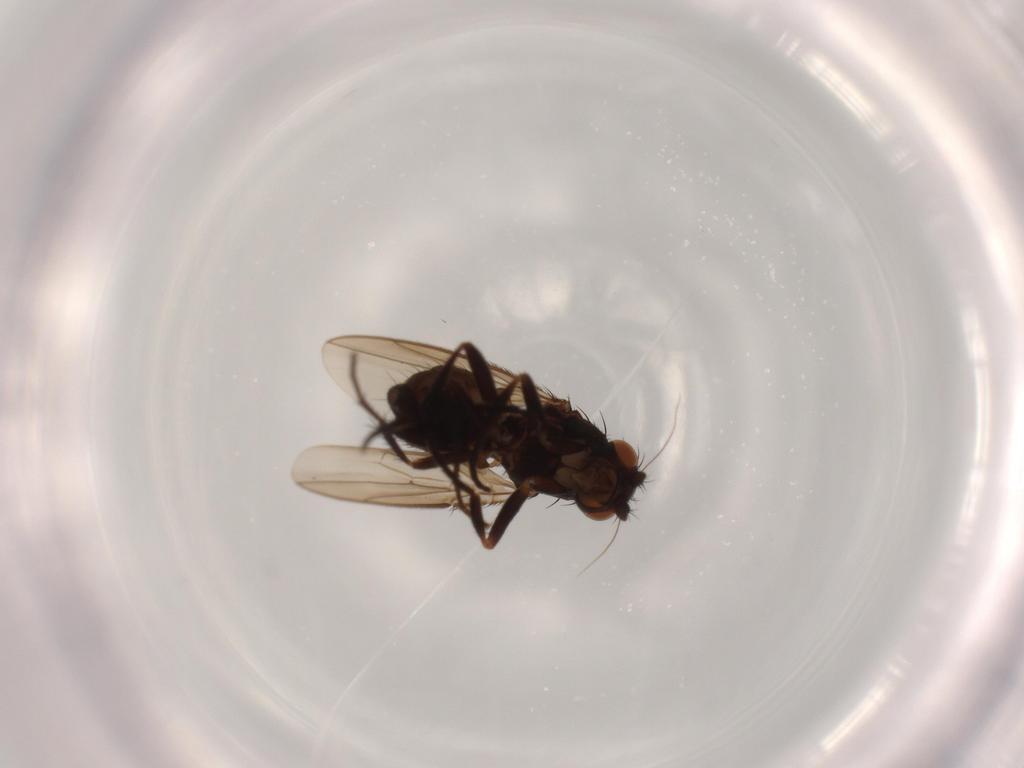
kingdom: Animalia
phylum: Arthropoda
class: Insecta
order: Diptera
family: Sphaeroceridae
